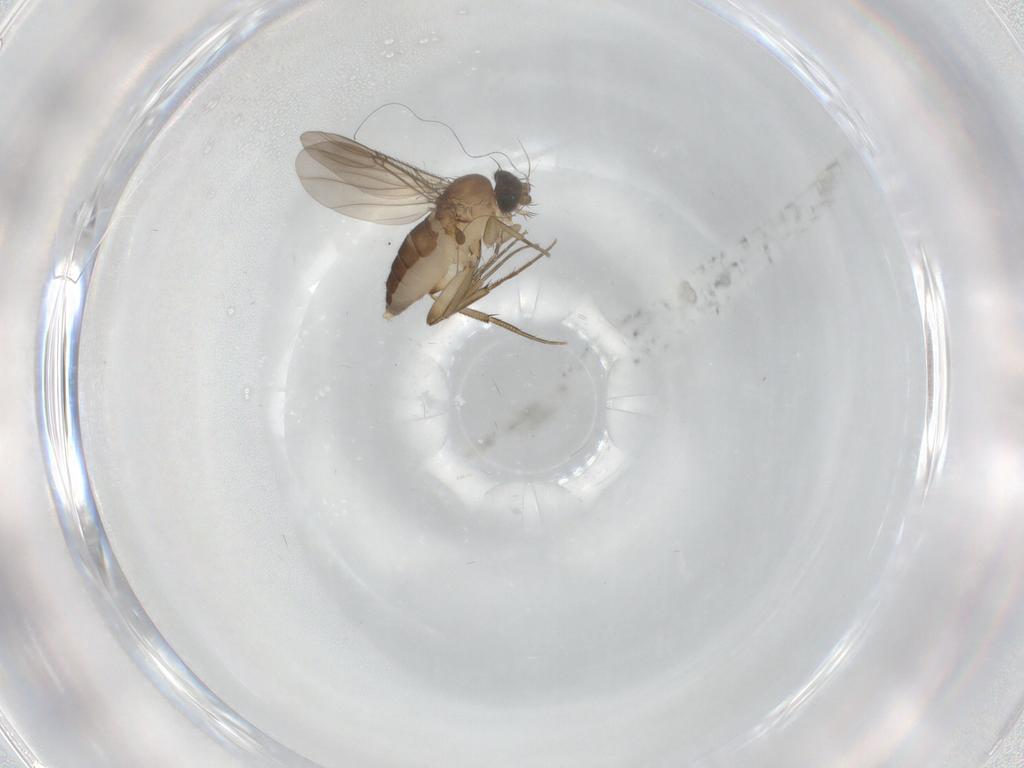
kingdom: Animalia
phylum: Arthropoda
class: Insecta
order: Diptera
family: Phoridae
